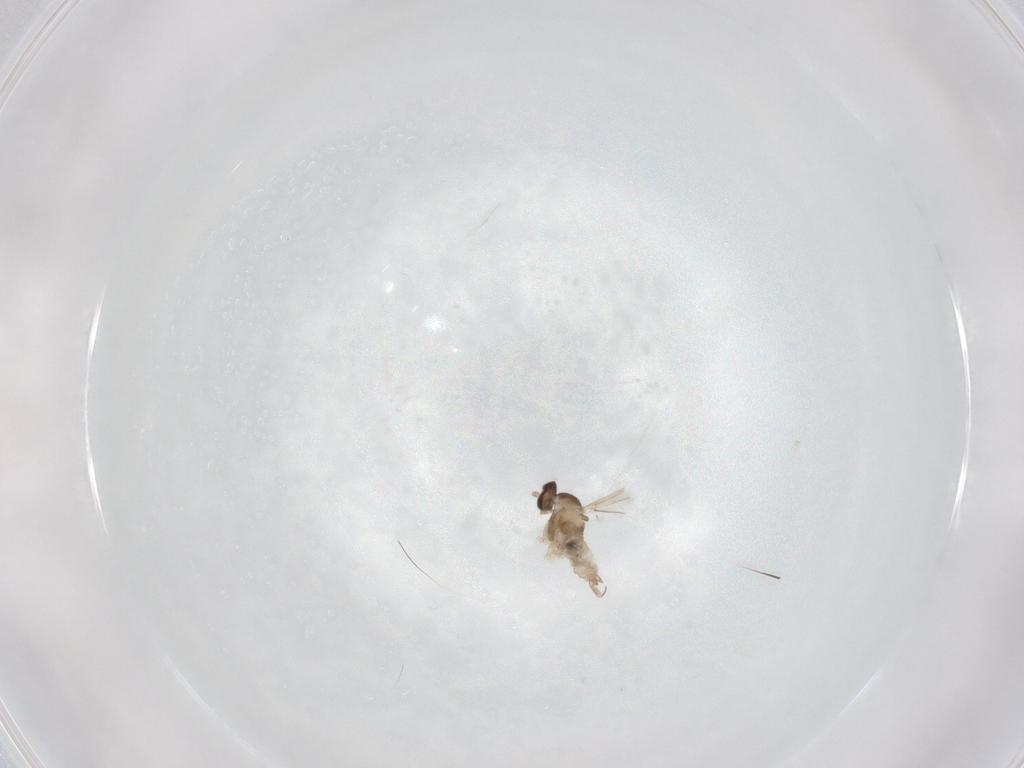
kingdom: Animalia
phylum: Arthropoda
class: Insecta
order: Diptera
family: Cecidomyiidae
